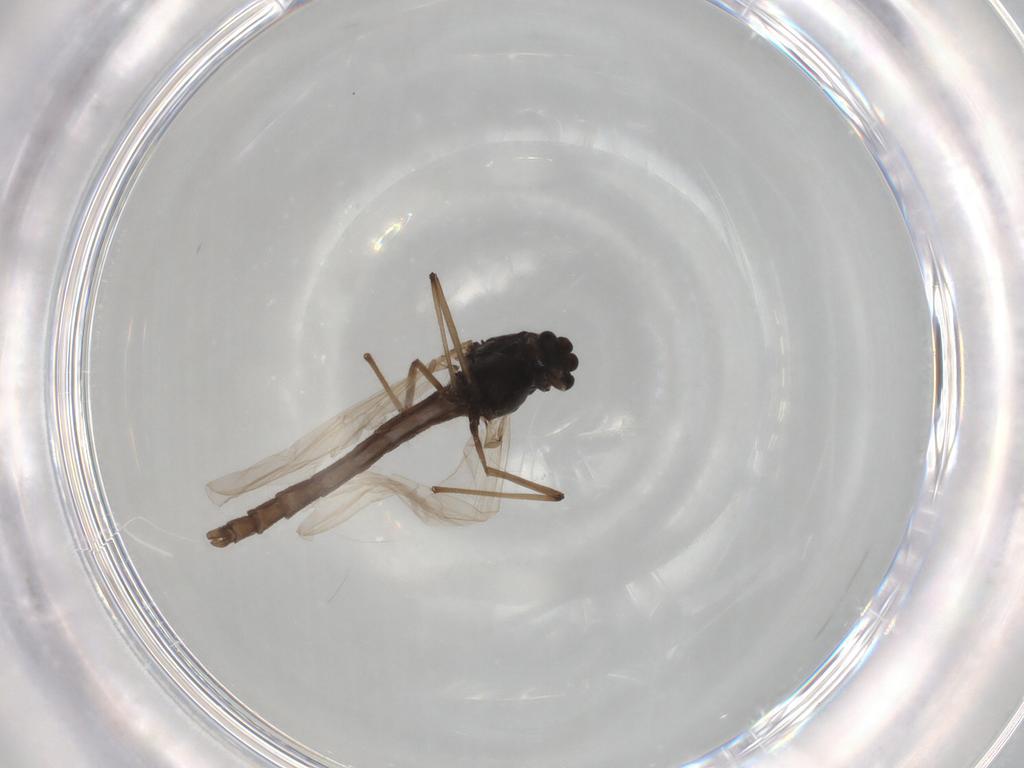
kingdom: Animalia
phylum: Arthropoda
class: Insecta
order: Diptera
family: Chironomidae
